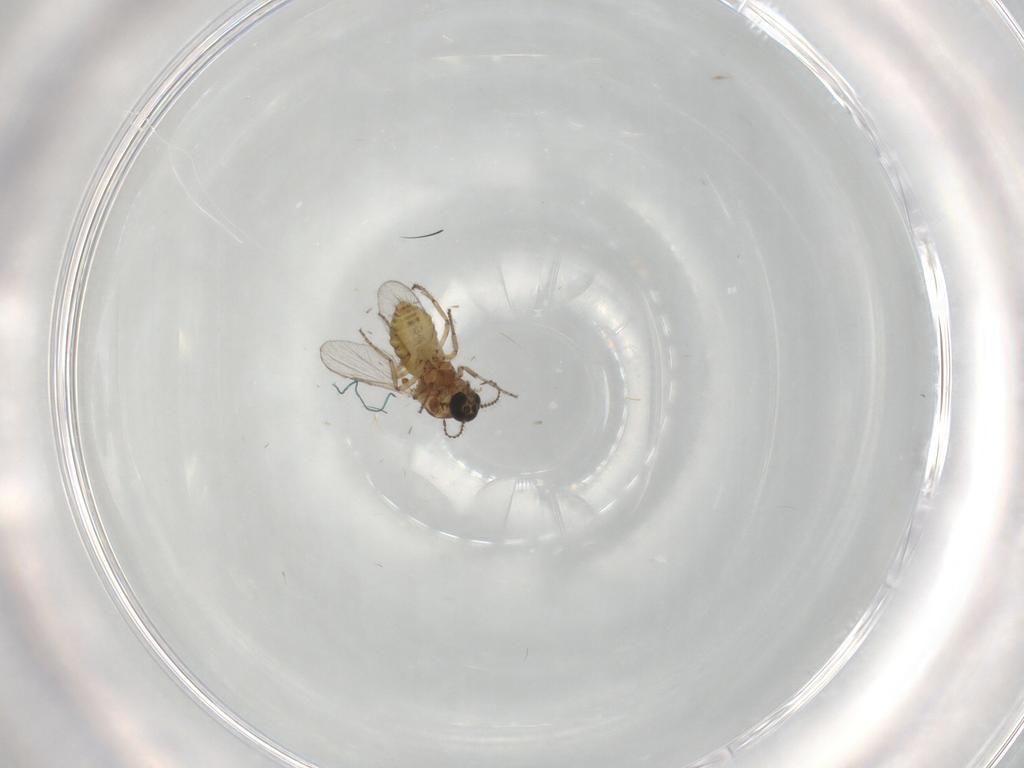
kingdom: Animalia
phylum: Arthropoda
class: Insecta
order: Diptera
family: Ceratopogonidae
